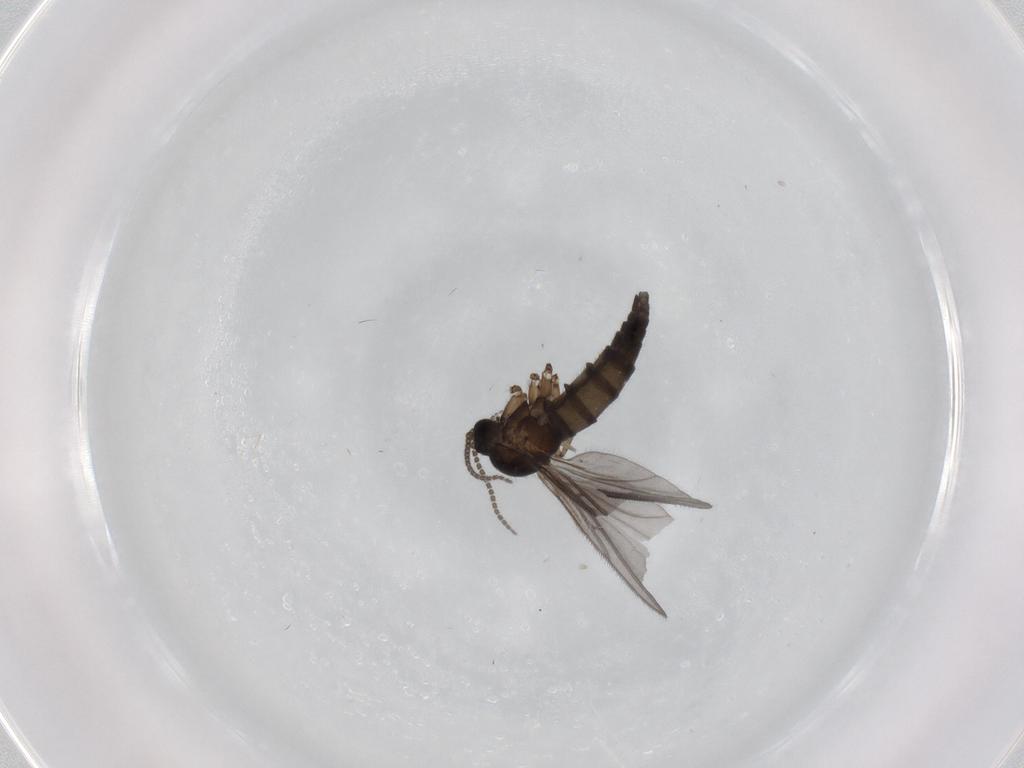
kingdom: Animalia
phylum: Arthropoda
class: Insecta
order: Diptera
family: Sciaridae
